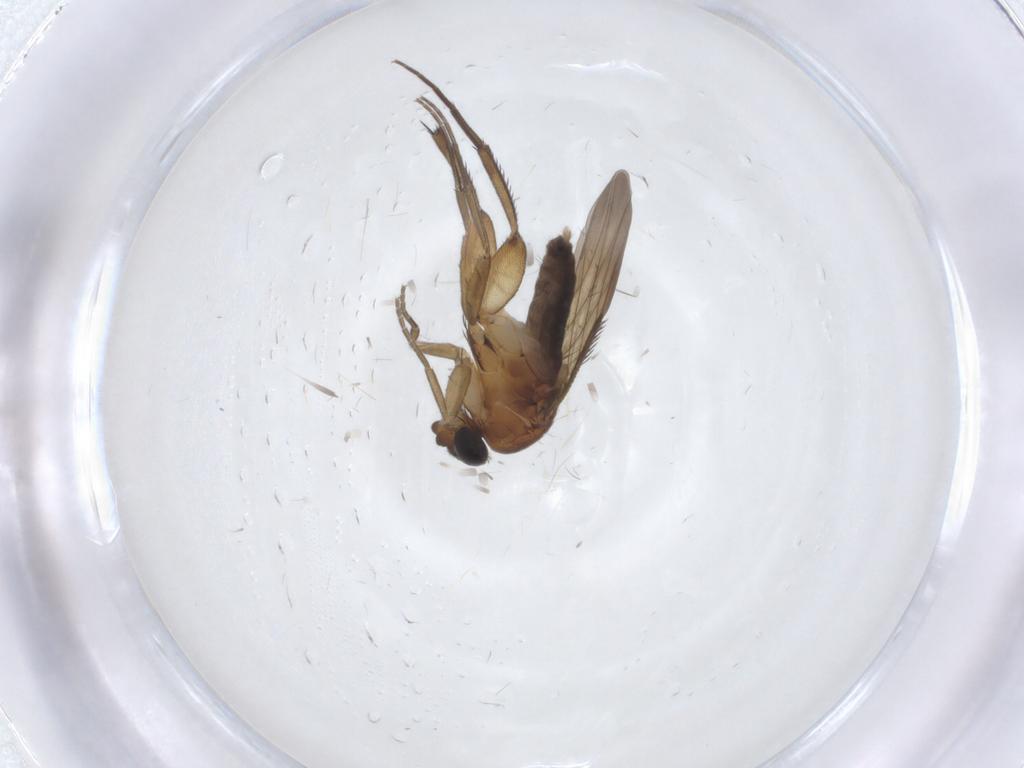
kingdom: Animalia
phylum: Arthropoda
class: Insecta
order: Diptera
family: Phoridae
